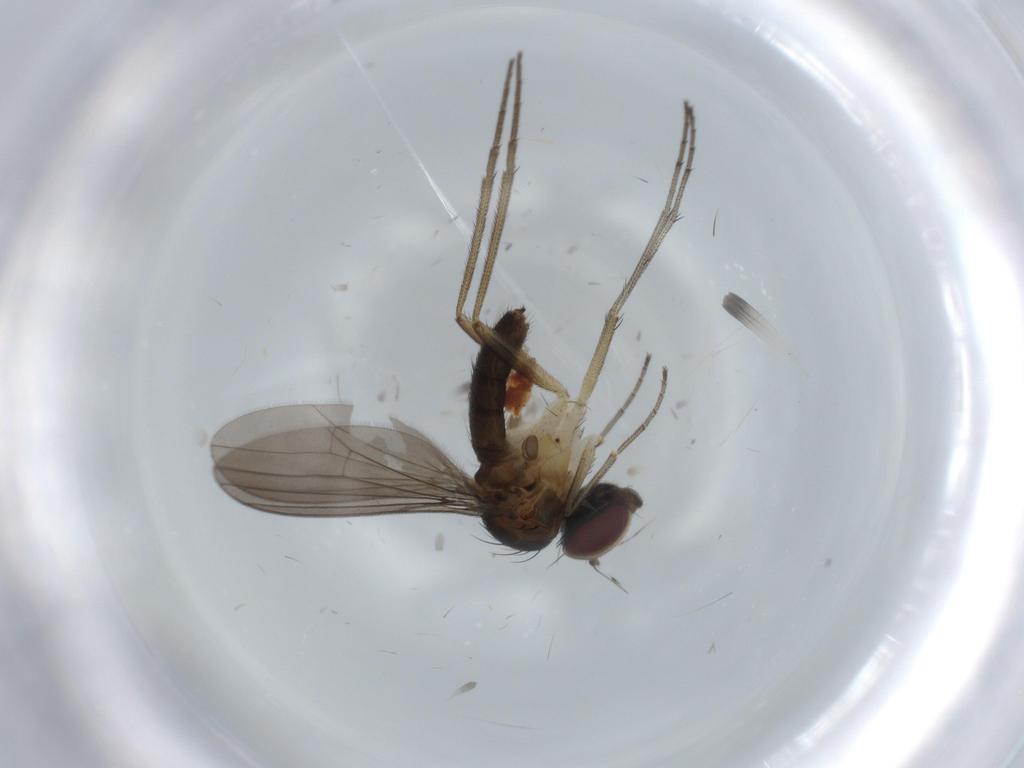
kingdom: Animalia
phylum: Arthropoda
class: Insecta
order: Diptera
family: Dolichopodidae
